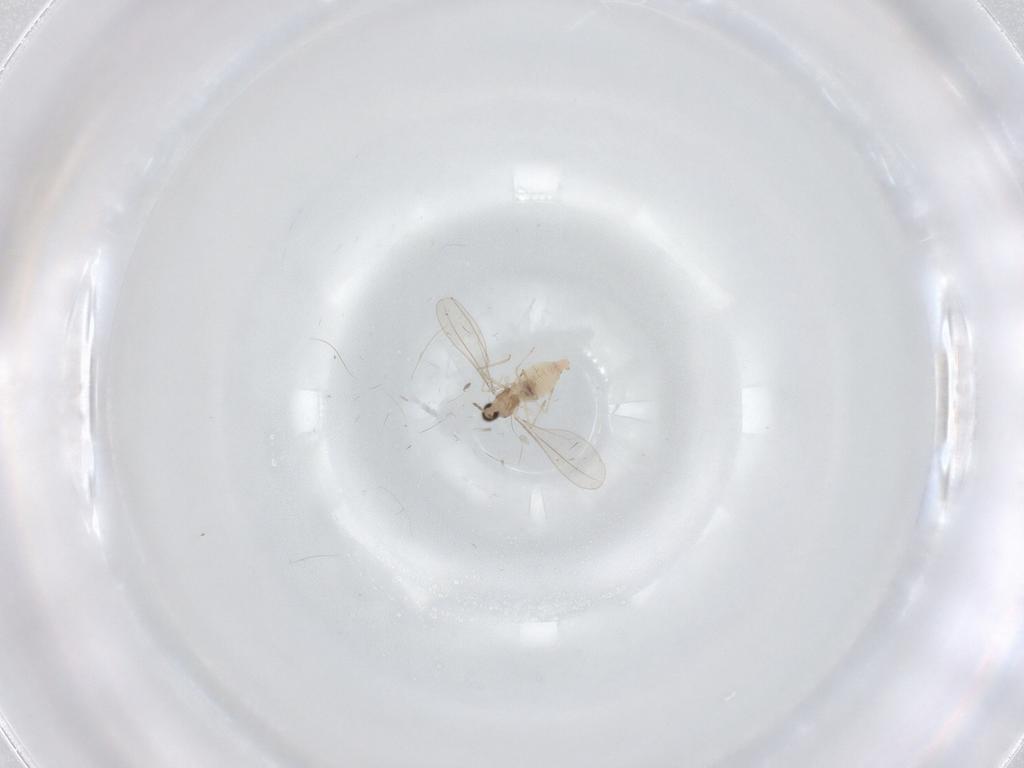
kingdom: Animalia
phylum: Arthropoda
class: Insecta
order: Diptera
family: Cecidomyiidae
